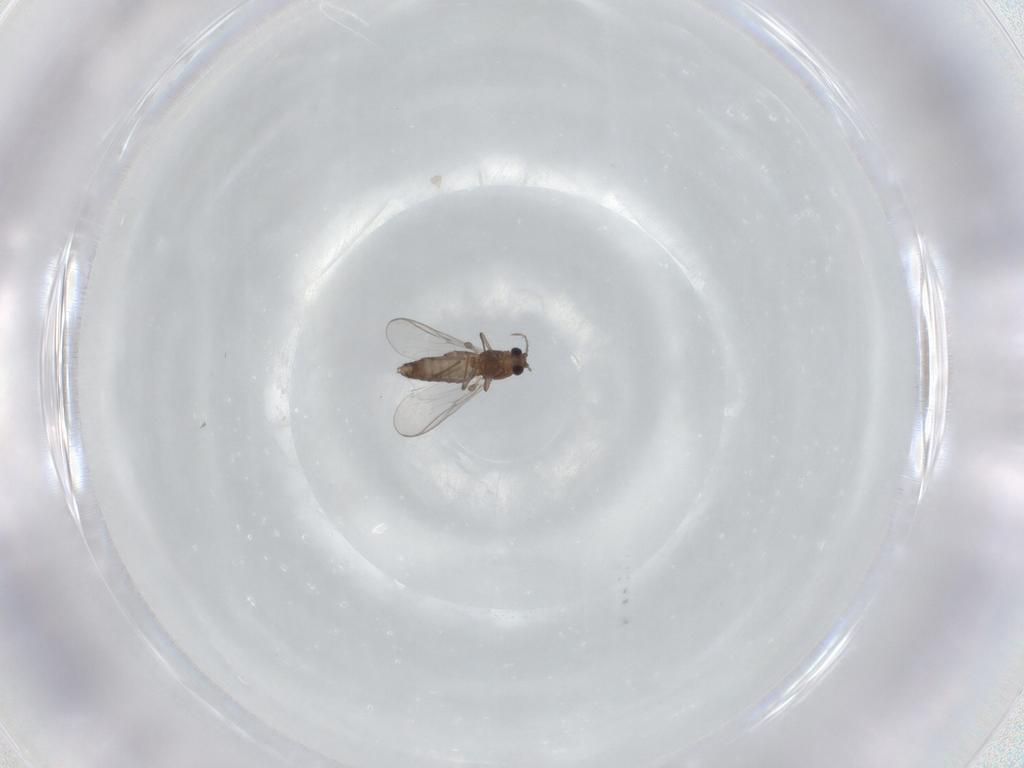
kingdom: Animalia
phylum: Arthropoda
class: Insecta
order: Diptera
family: Chironomidae
